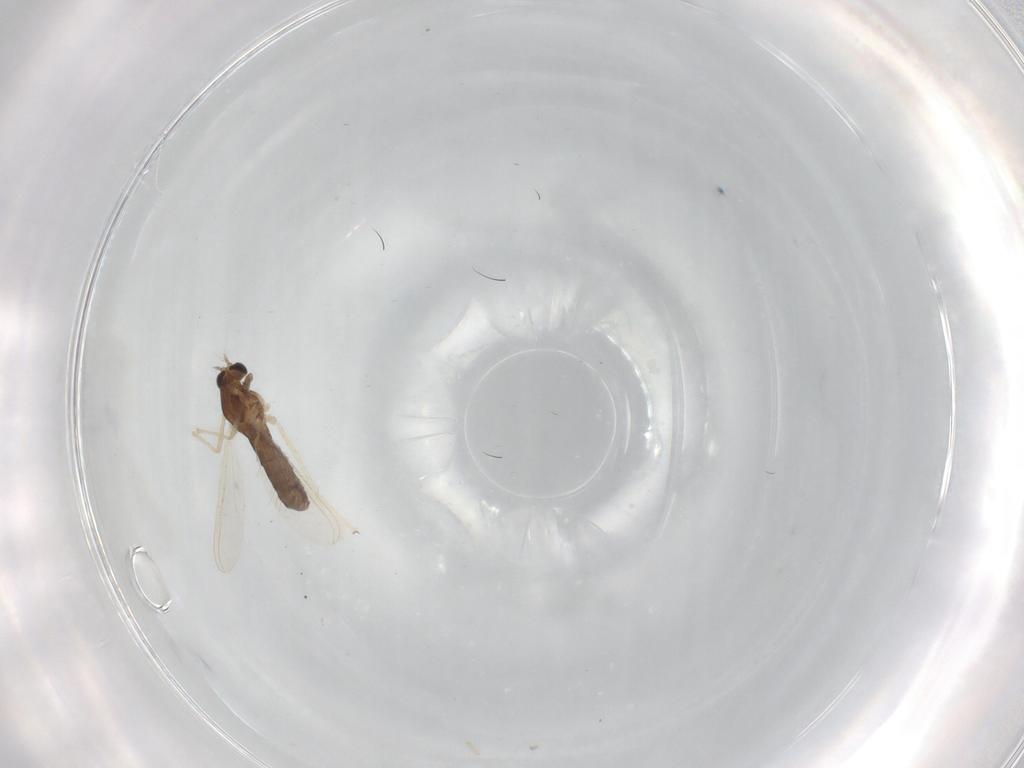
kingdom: Animalia
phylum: Arthropoda
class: Insecta
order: Diptera
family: Chironomidae
